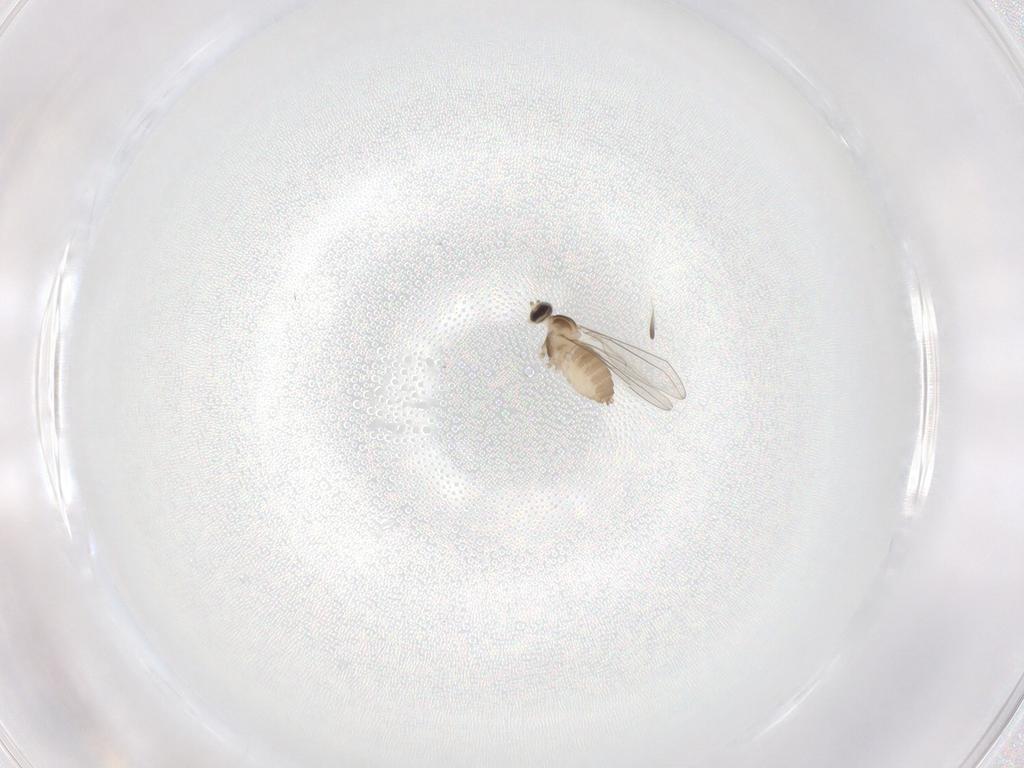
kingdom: Animalia
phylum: Arthropoda
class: Insecta
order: Diptera
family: Cecidomyiidae
